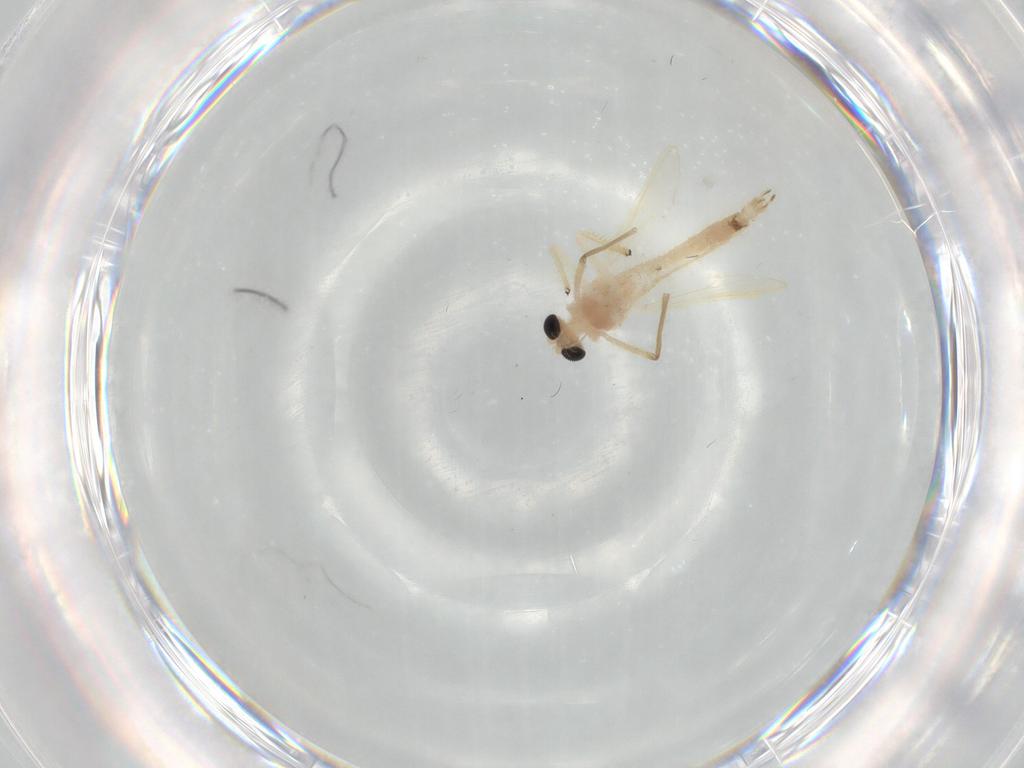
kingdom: Animalia
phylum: Arthropoda
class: Insecta
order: Diptera
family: Chironomidae
